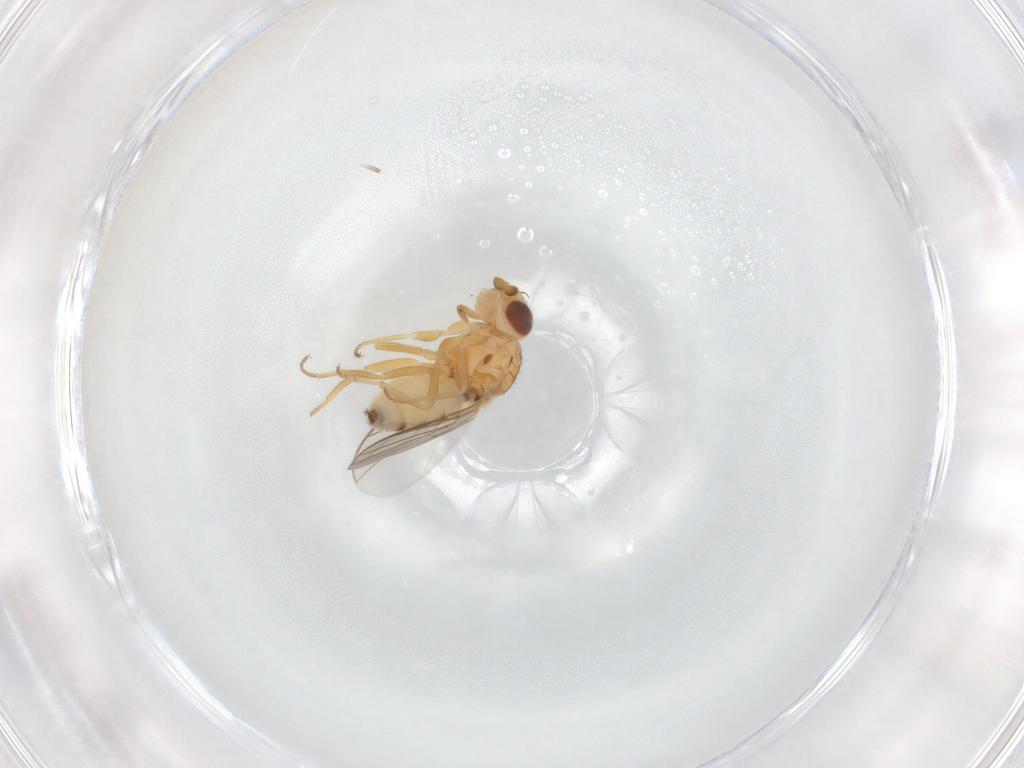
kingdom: Animalia
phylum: Arthropoda
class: Insecta
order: Diptera
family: Chloropidae
